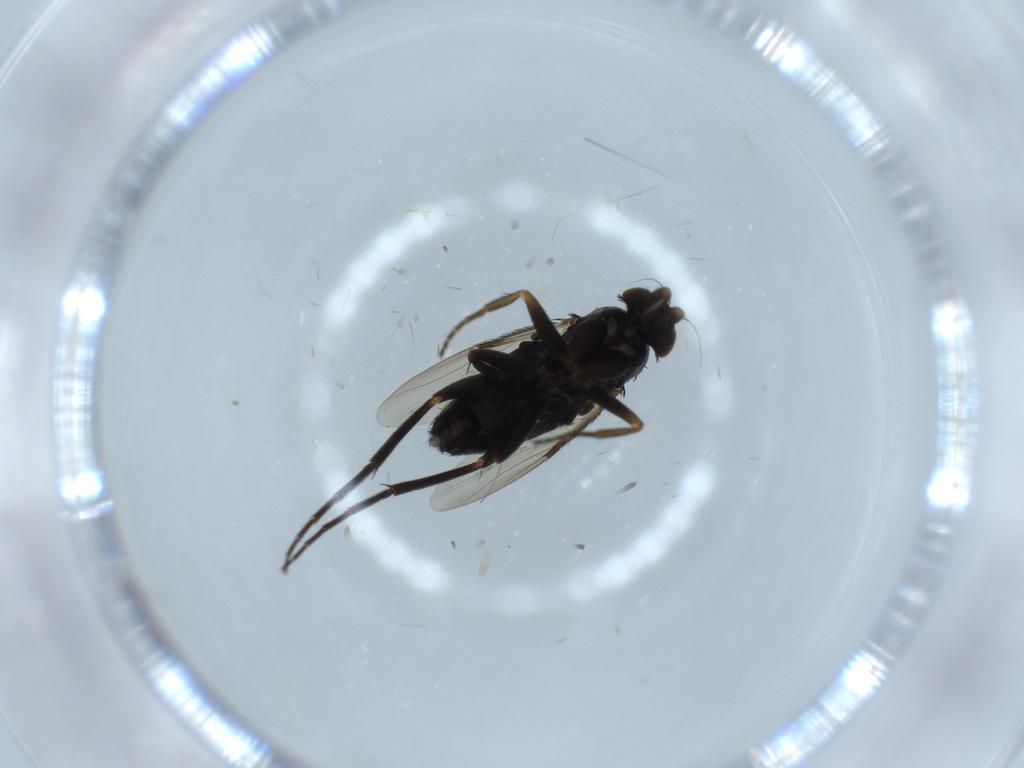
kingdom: Animalia
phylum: Arthropoda
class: Insecta
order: Diptera
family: Phoridae
